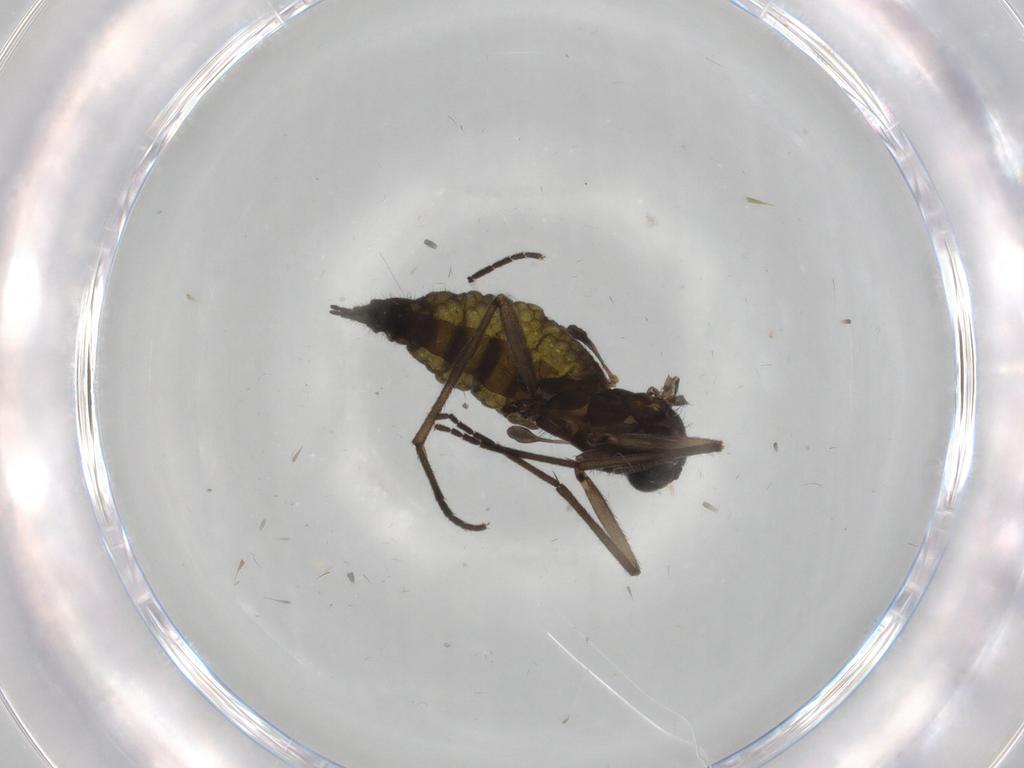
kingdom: Animalia
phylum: Arthropoda
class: Insecta
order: Diptera
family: Sciaridae
